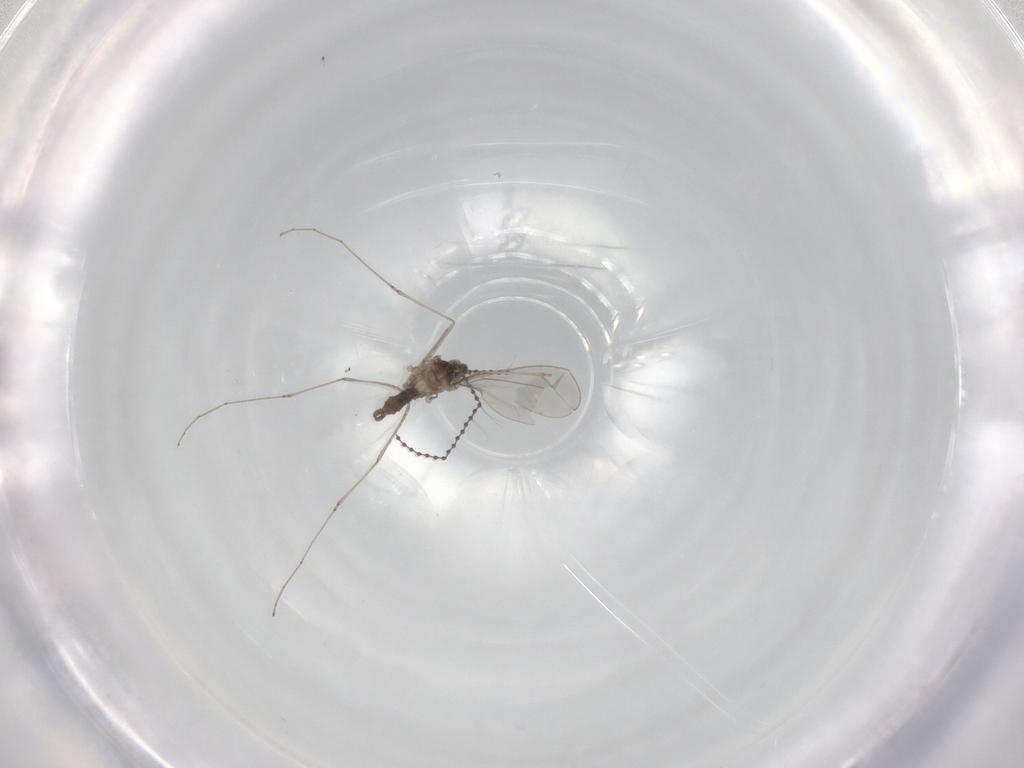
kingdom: Animalia
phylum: Arthropoda
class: Insecta
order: Diptera
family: Cecidomyiidae
